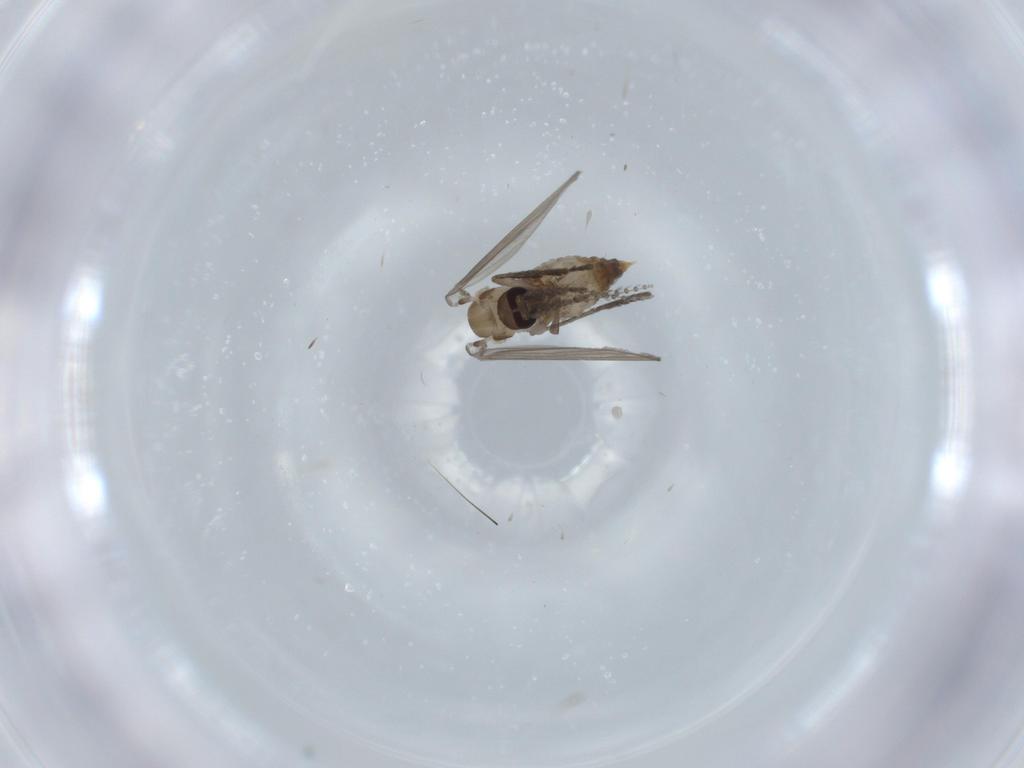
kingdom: Animalia
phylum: Arthropoda
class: Insecta
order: Diptera
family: Psychodidae
